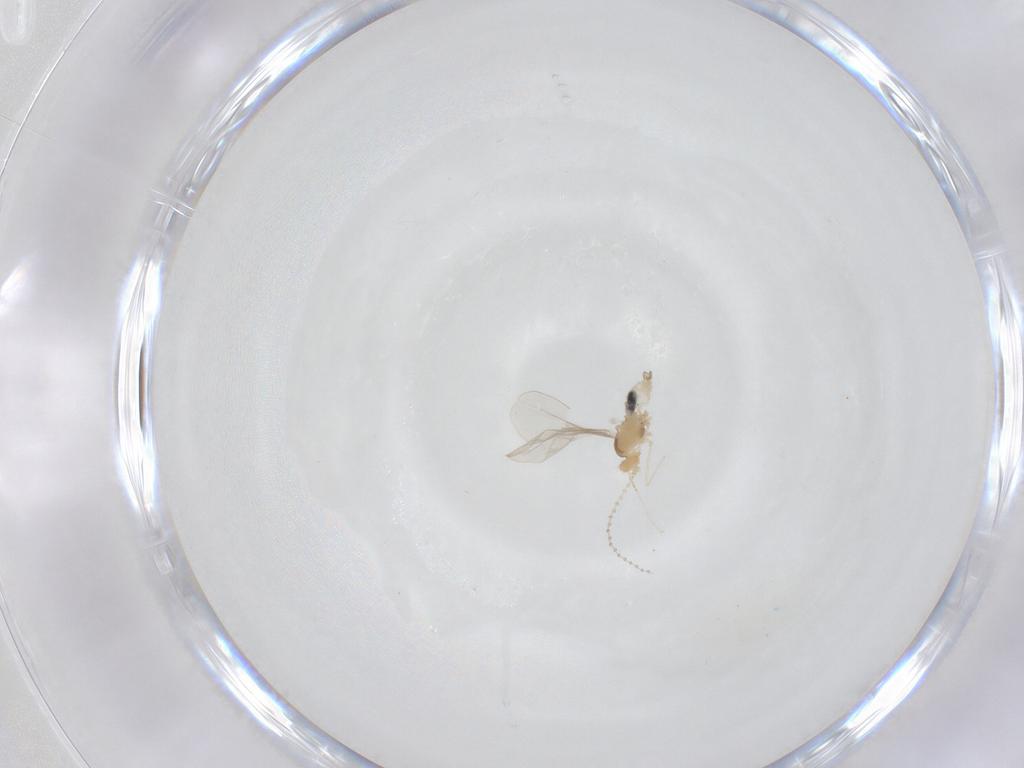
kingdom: Animalia
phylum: Arthropoda
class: Insecta
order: Diptera
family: Cecidomyiidae
